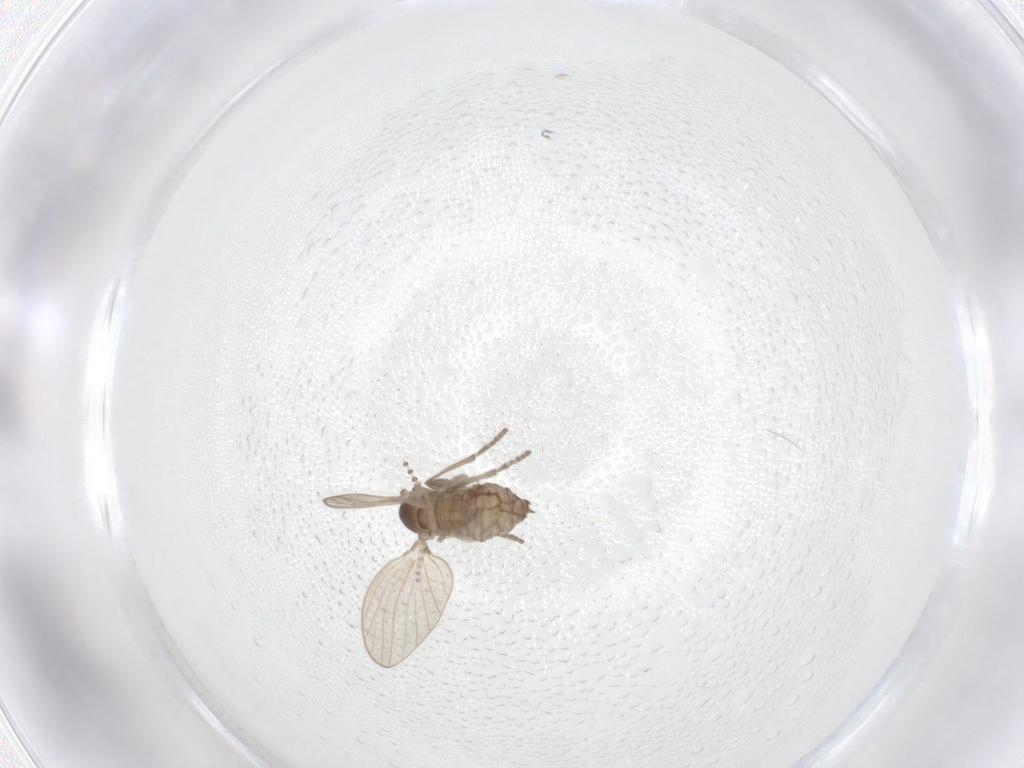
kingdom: Animalia
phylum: Arthropoda
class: Insecta
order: Diptera
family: Psychodidae
